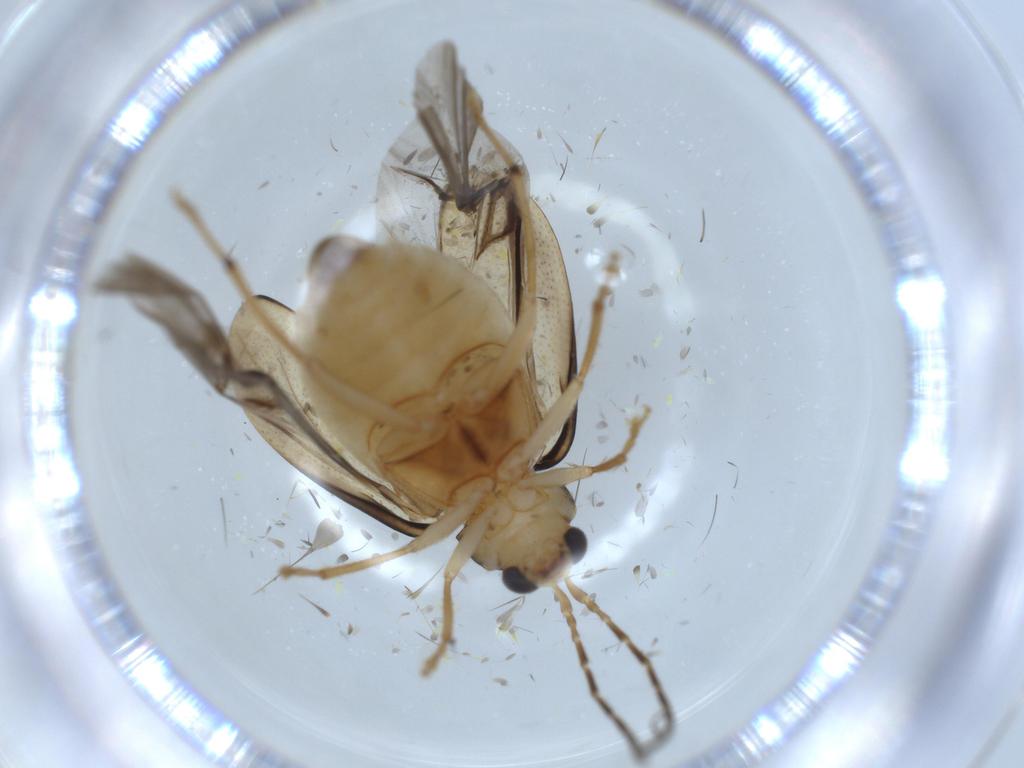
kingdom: Animalia
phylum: Arthropoda
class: Insecta
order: Coleoptera
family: Chrysomelidae
